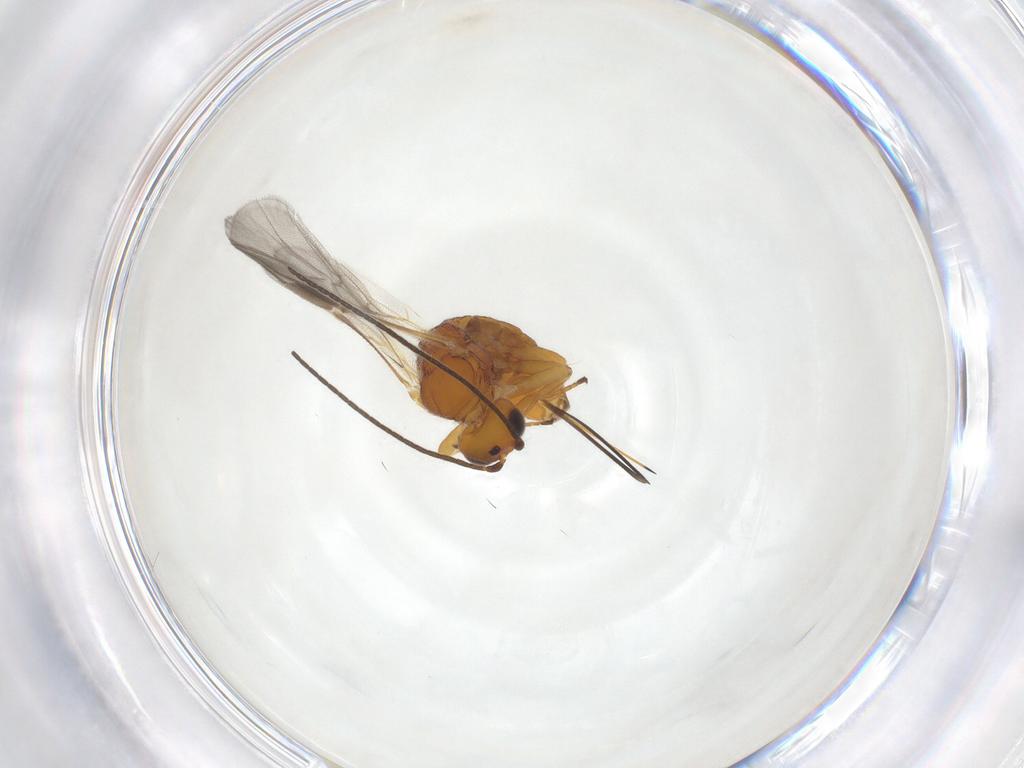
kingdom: Animalia
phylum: Arthropoda
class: Insecta
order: Hymenoptera
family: Braconidae
